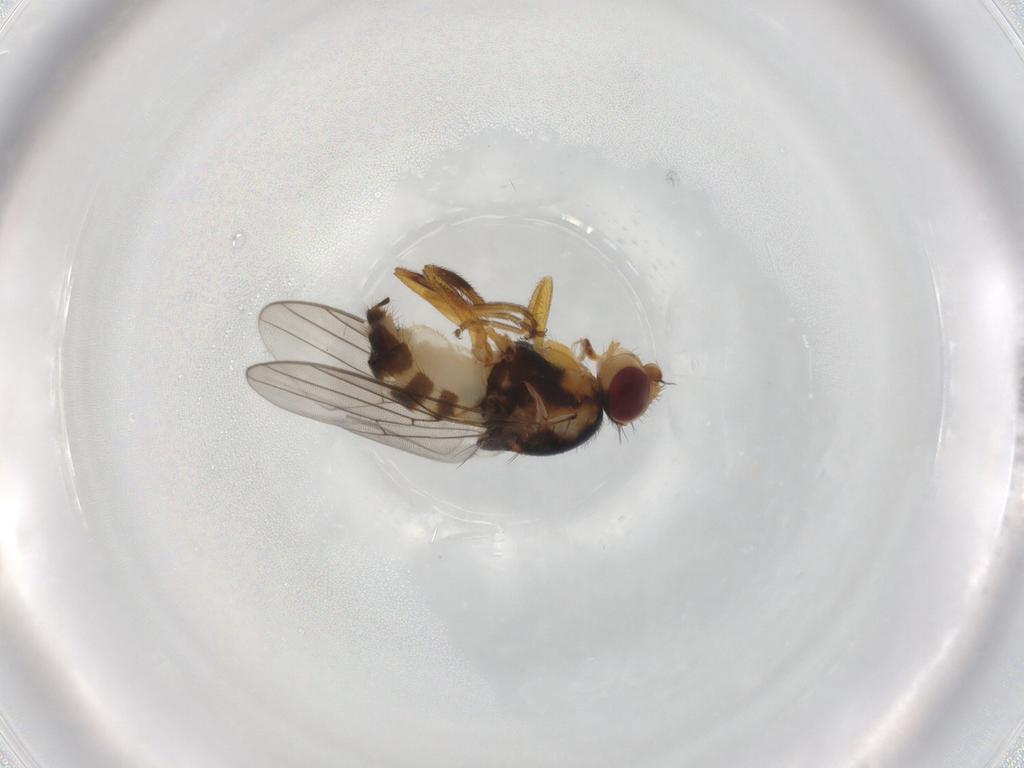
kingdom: Animalia
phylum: Arthropoda
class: Insecta
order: Diptera
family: Chloropidae
